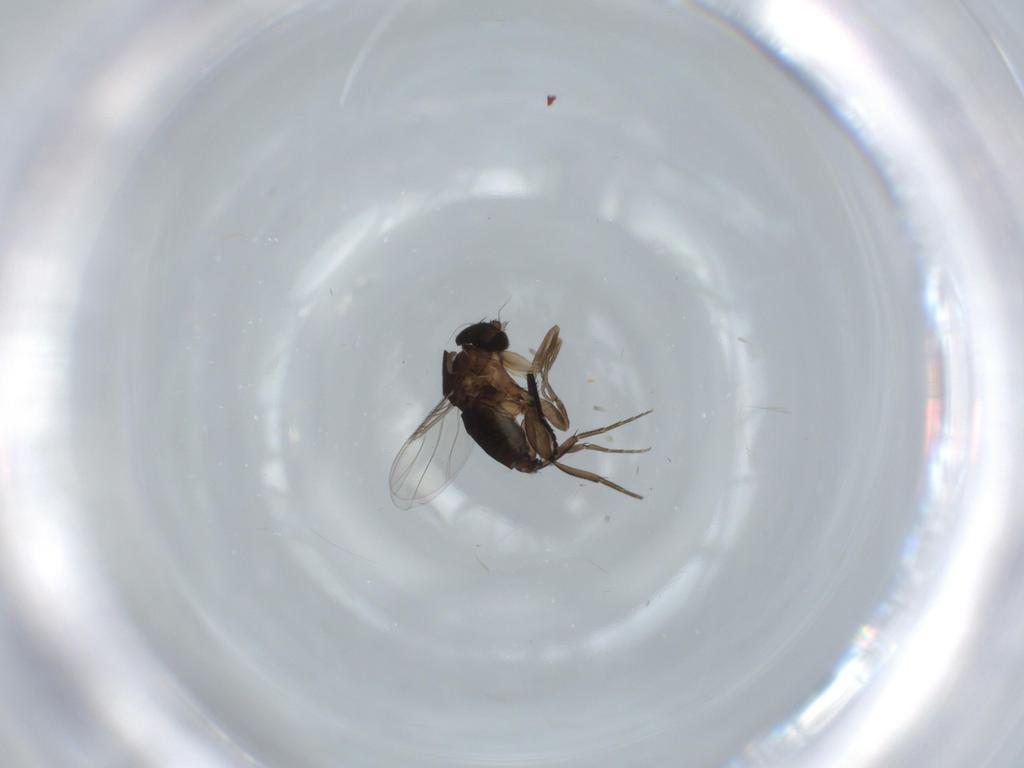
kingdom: Animalia
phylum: Arthropoda
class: Insecta
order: Diptera
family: Phoridae
